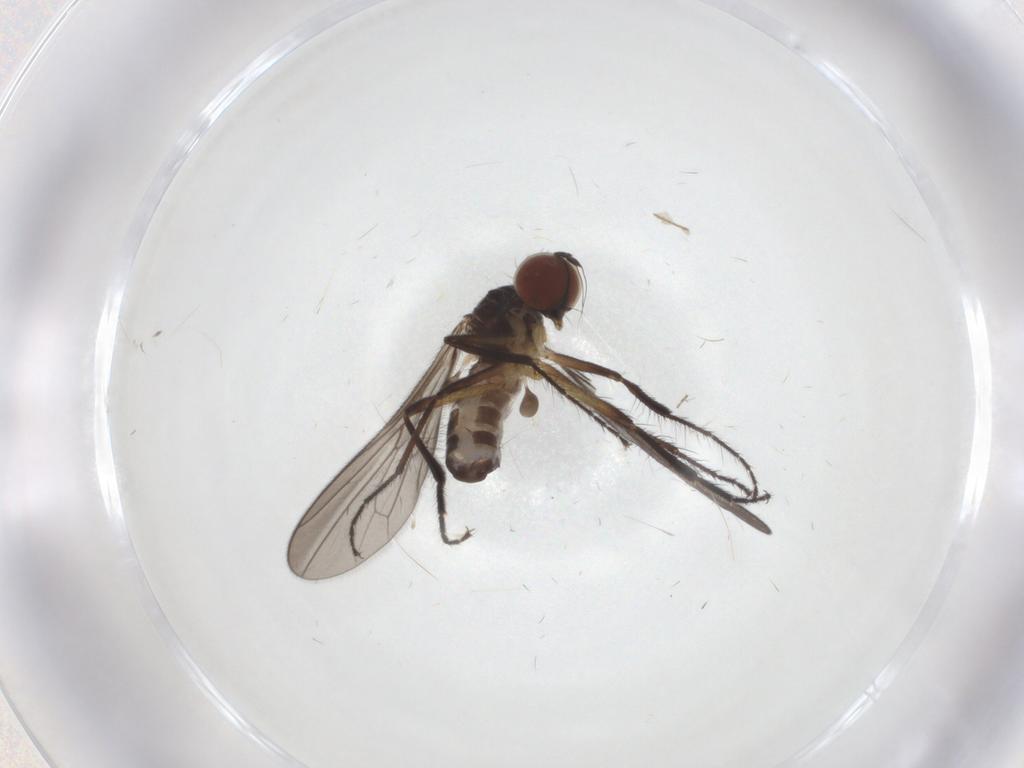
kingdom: Animalia
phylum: Arthropoda
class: Insecta
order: Diptera
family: Hybotidae
